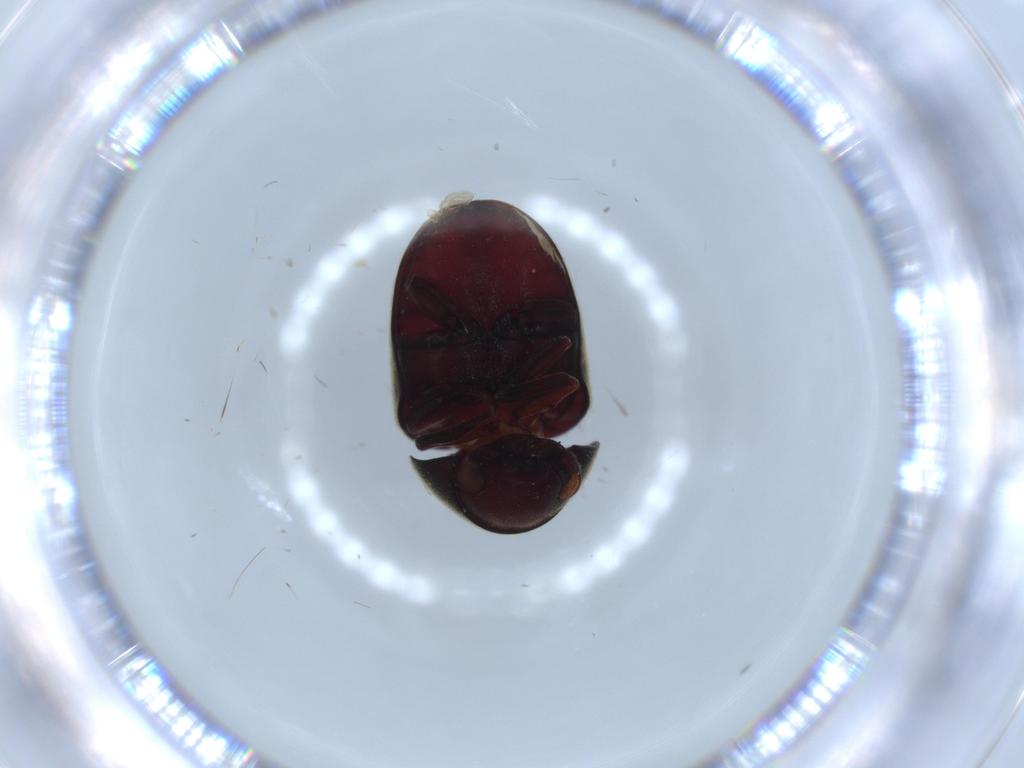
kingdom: Animalia
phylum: Arthropoda
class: Insecta
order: Coleoptera
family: Ptinidae
